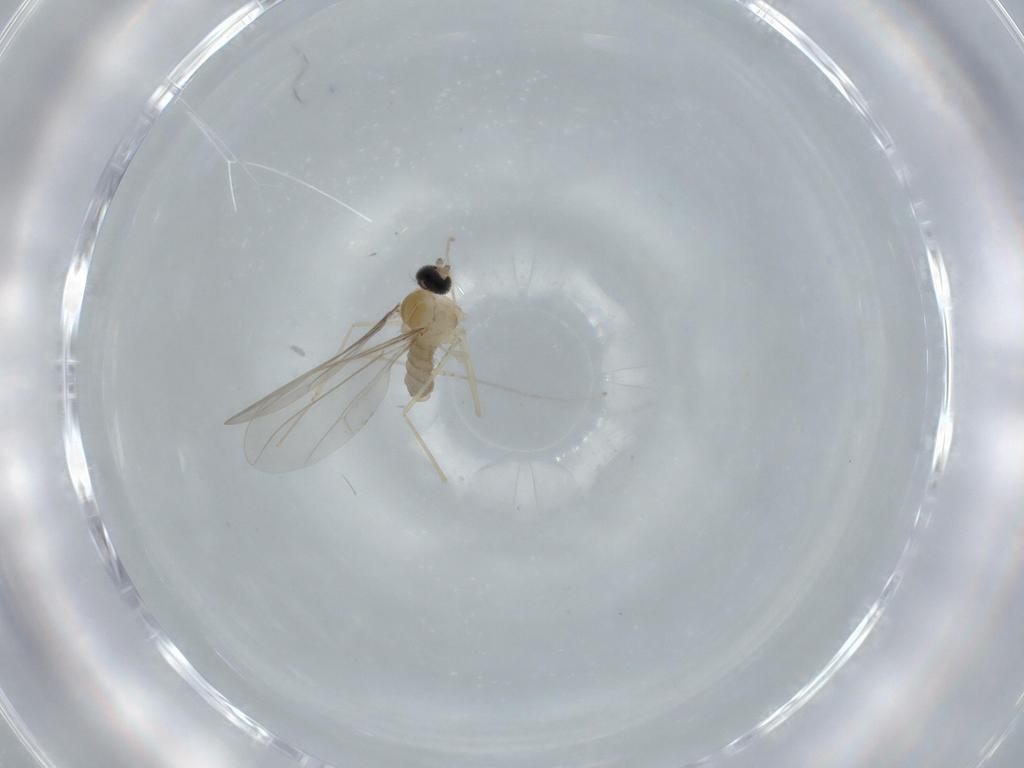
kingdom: Animalia
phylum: Arthropoda
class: Insecta
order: Diptera
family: Cecidomyiidae
